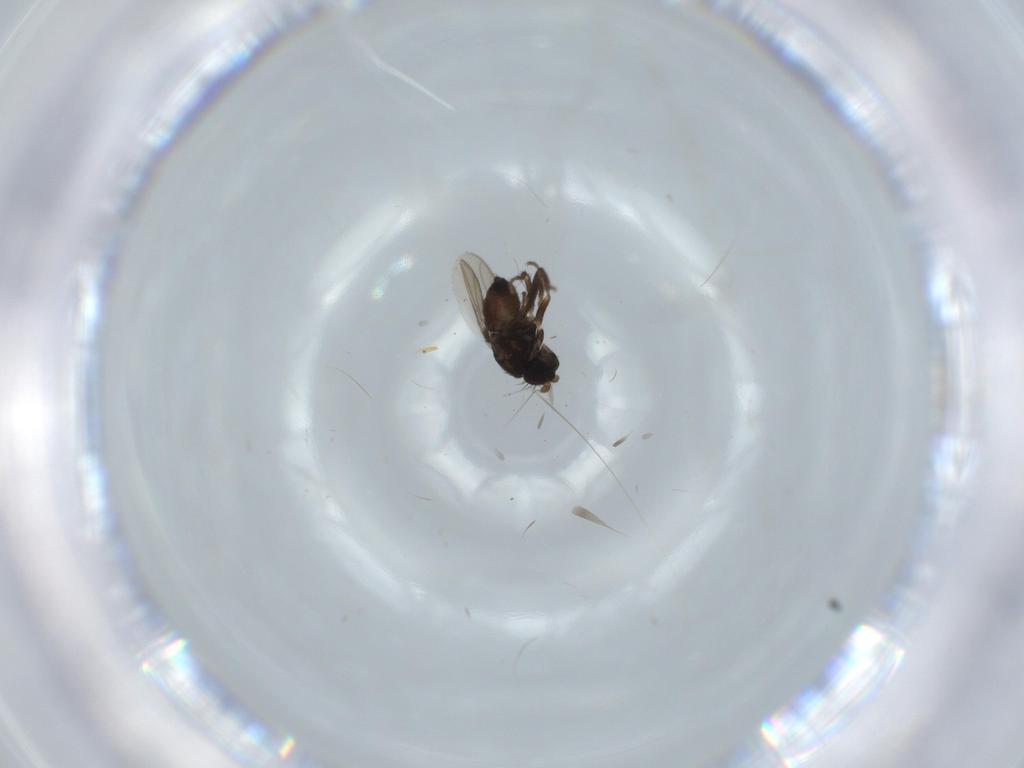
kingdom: Animalia
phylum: Arthropoda
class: Insecta
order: Diptera
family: Sphaeroceridae
